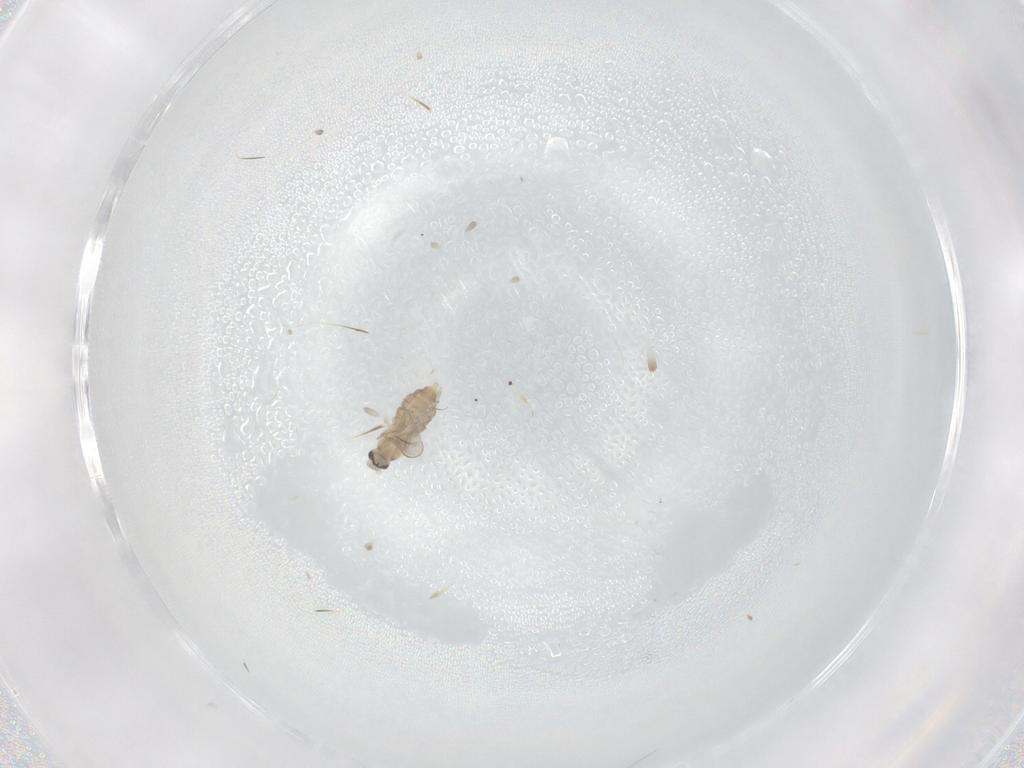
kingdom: Animalia
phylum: Arthropoda
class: Insecta
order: Diptera
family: Cecidomyiidae
